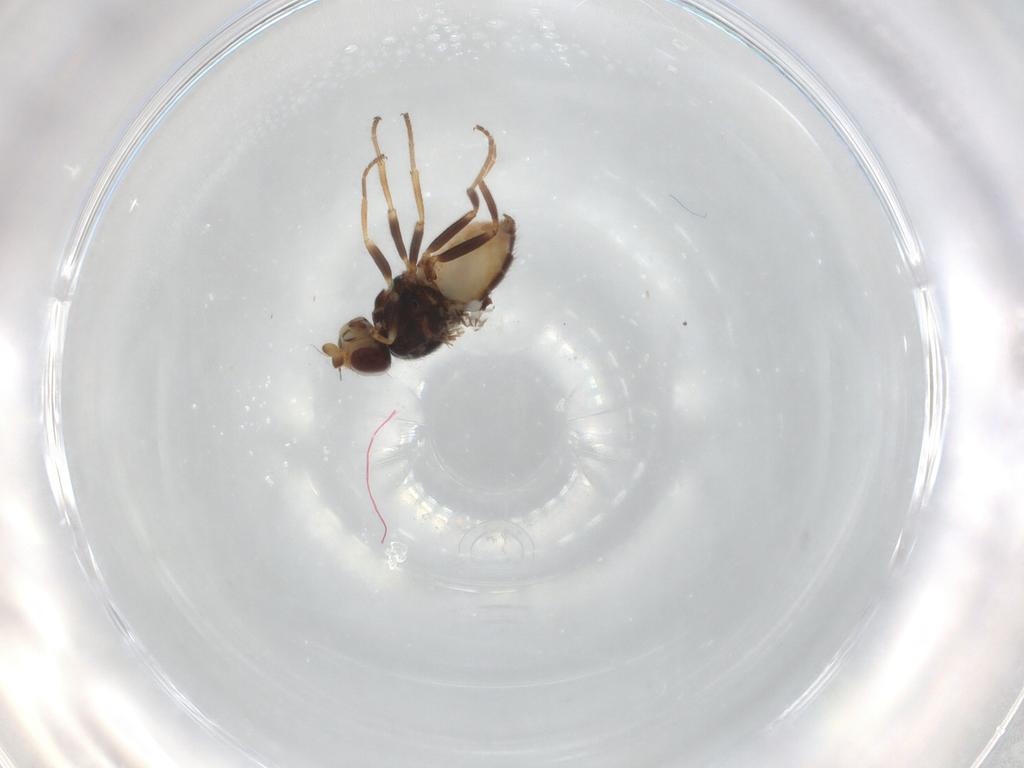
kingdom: Animalia
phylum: Arthropoda
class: Insecta
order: Diptera
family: Chloropidae
